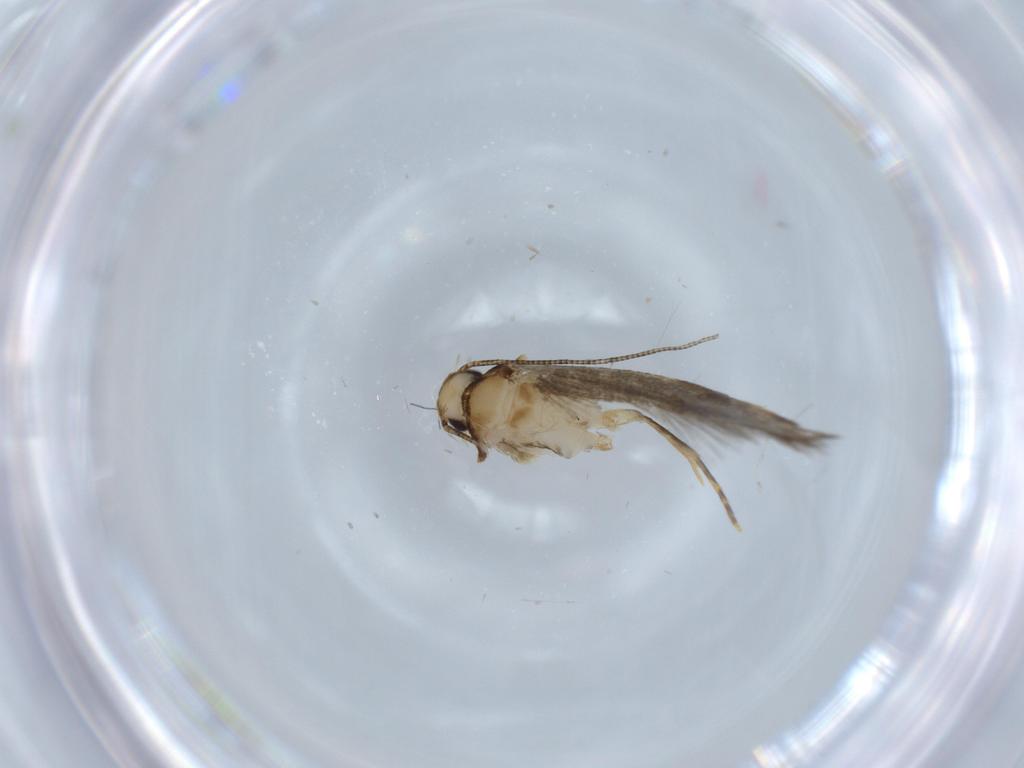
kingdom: Animalia
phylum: Arthropoda
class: Insecta
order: Lepidoptera
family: Tineidae
